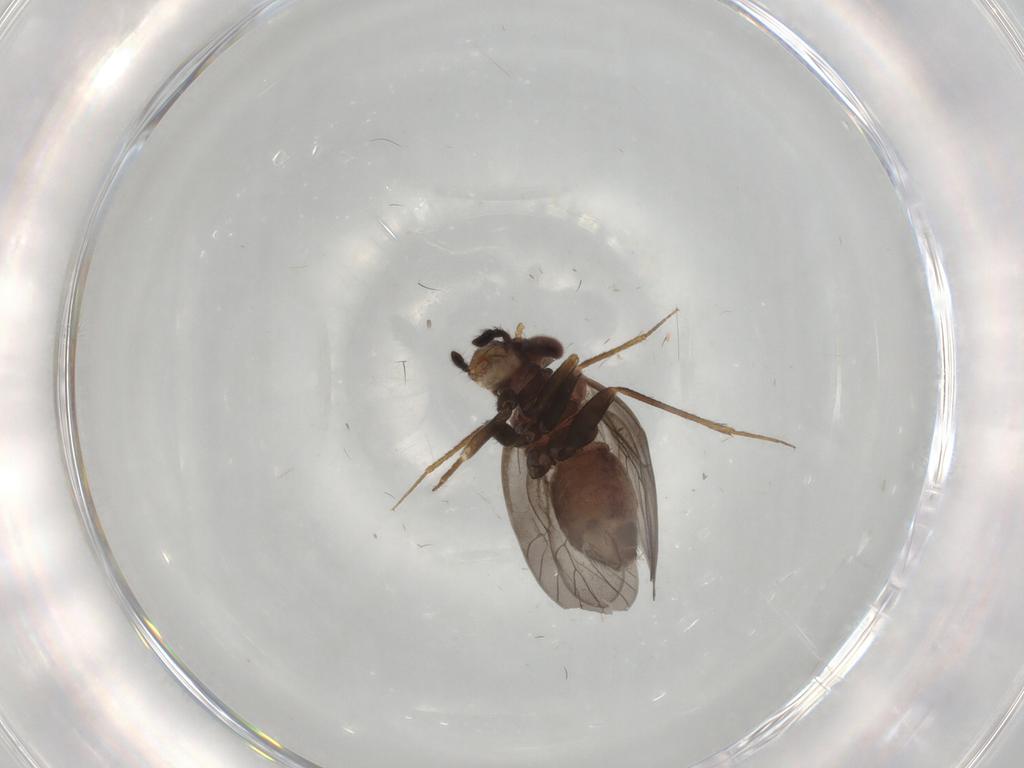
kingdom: Animalia
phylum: Arthropoda
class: Insecta
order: Psocodea
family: Lepidopsocidae
